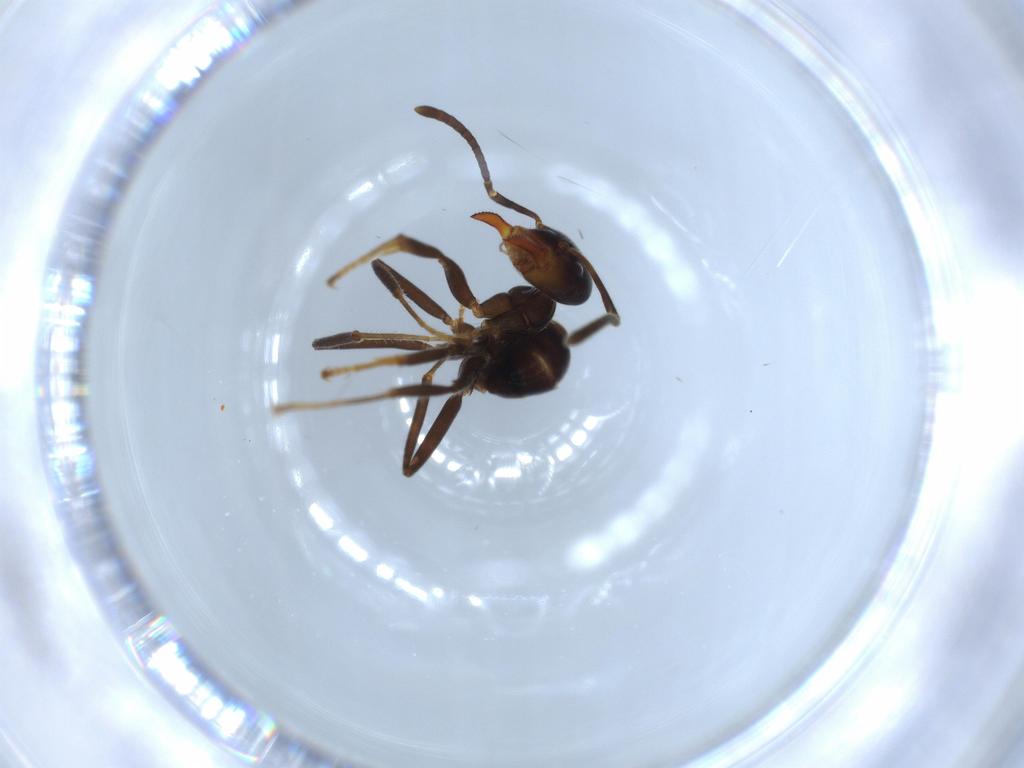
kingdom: Animalia
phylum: Arthropoda
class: Insecta
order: Hymenoptera
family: Formicidae
